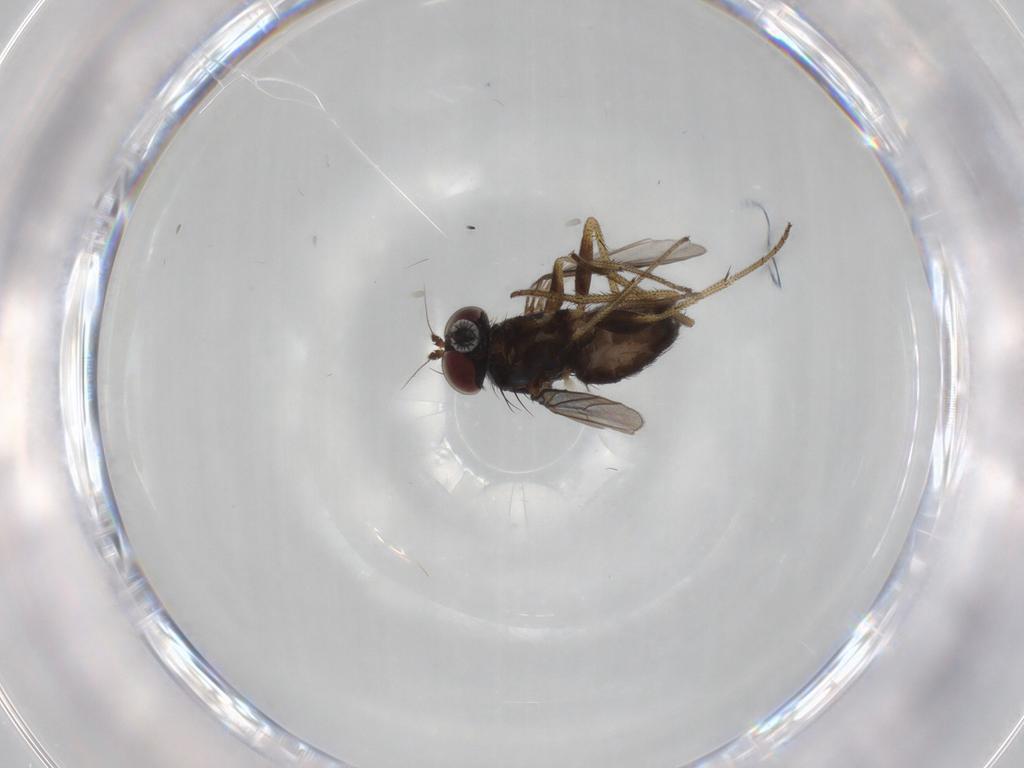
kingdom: Animalia
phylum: Arthropoda
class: Insecta
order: Diptera
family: Dolichopodidae
